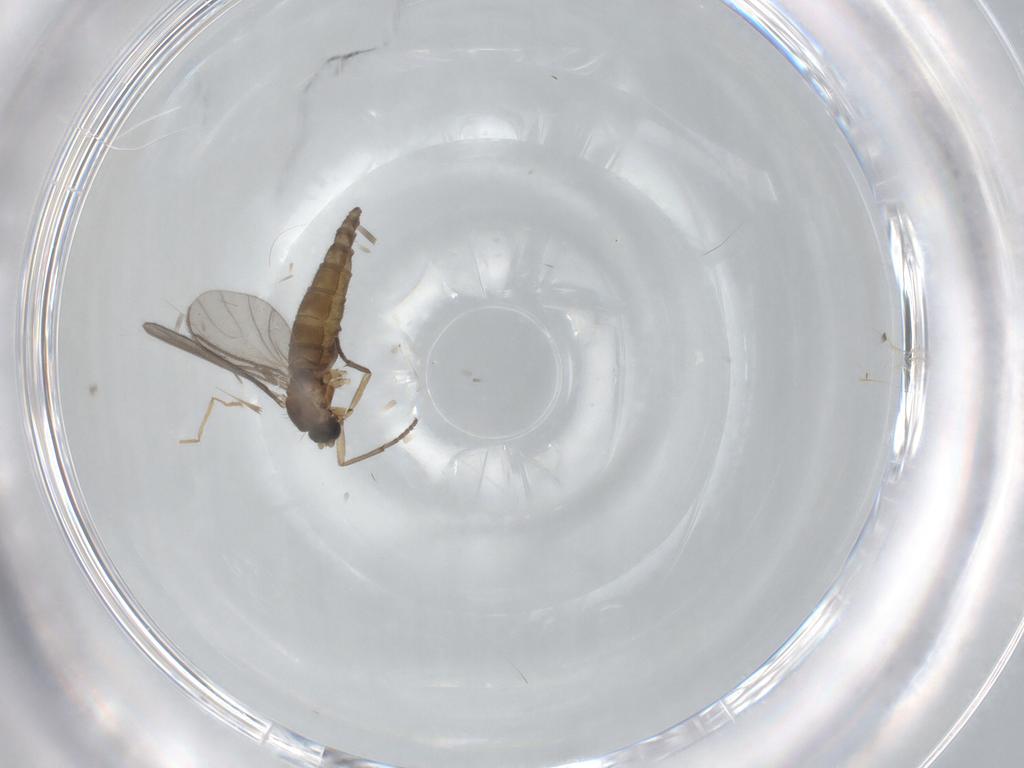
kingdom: Animalia
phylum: Arthropoda
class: Insecta
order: Diptera
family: Sciaridae
